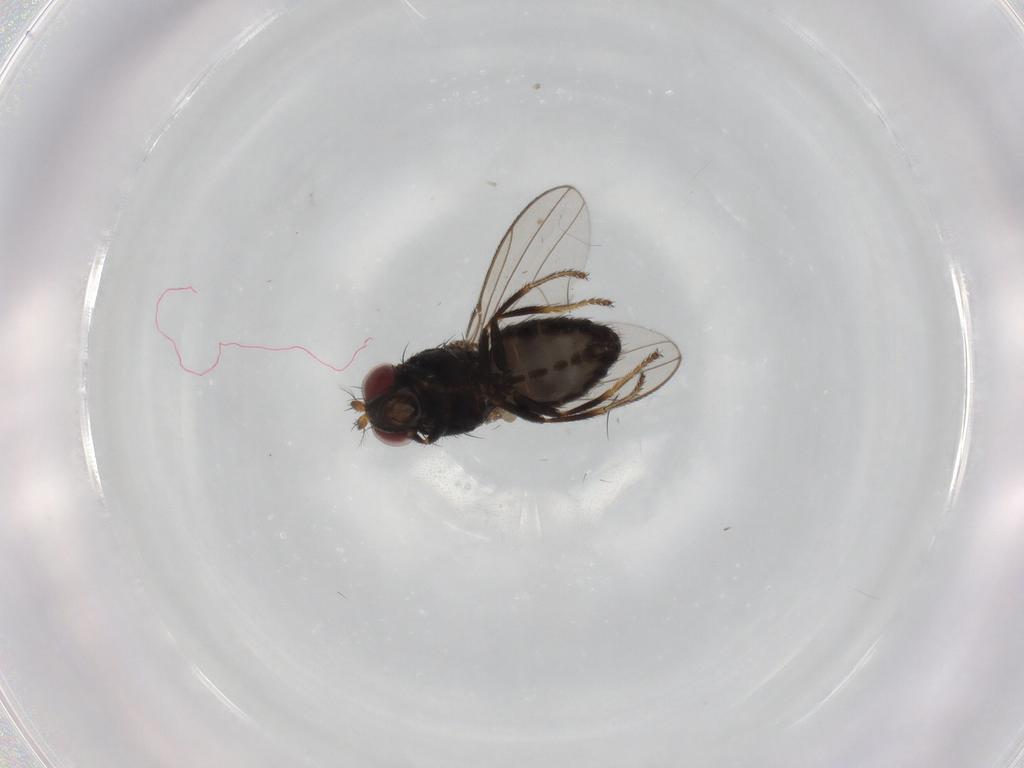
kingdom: Animalia
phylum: Arthropoda
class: Insecta
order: Diptera
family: Ephydridae
